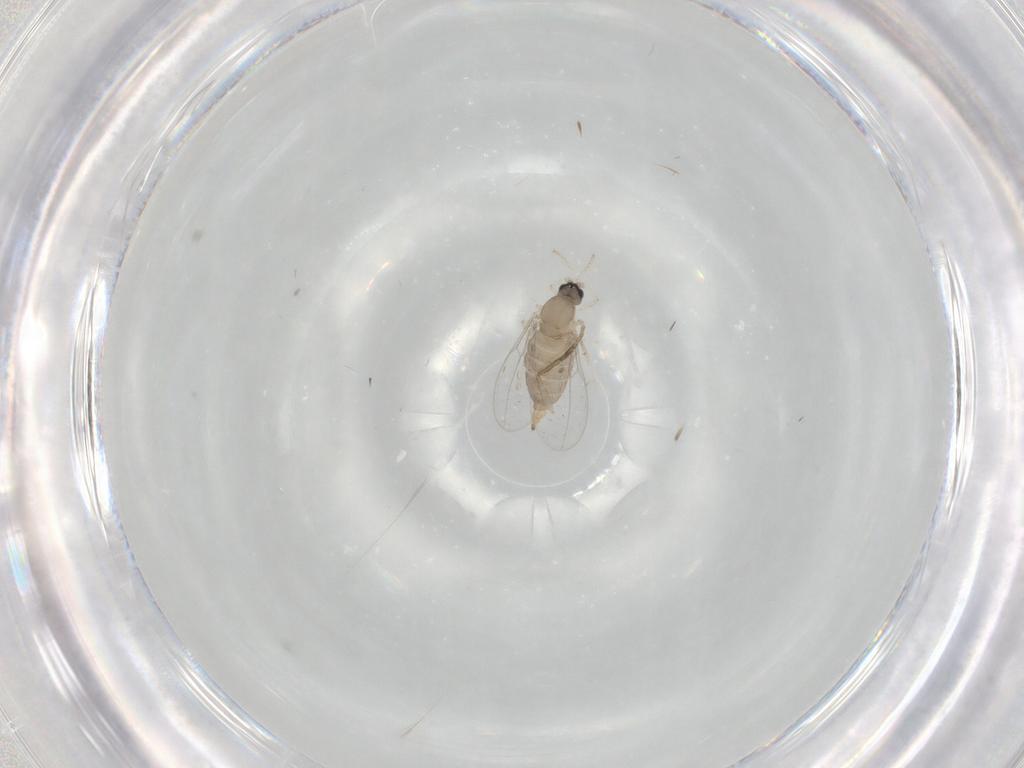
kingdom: Animalia
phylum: Arthropoda
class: Insecta
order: Diptera
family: Cecidomyiidae
